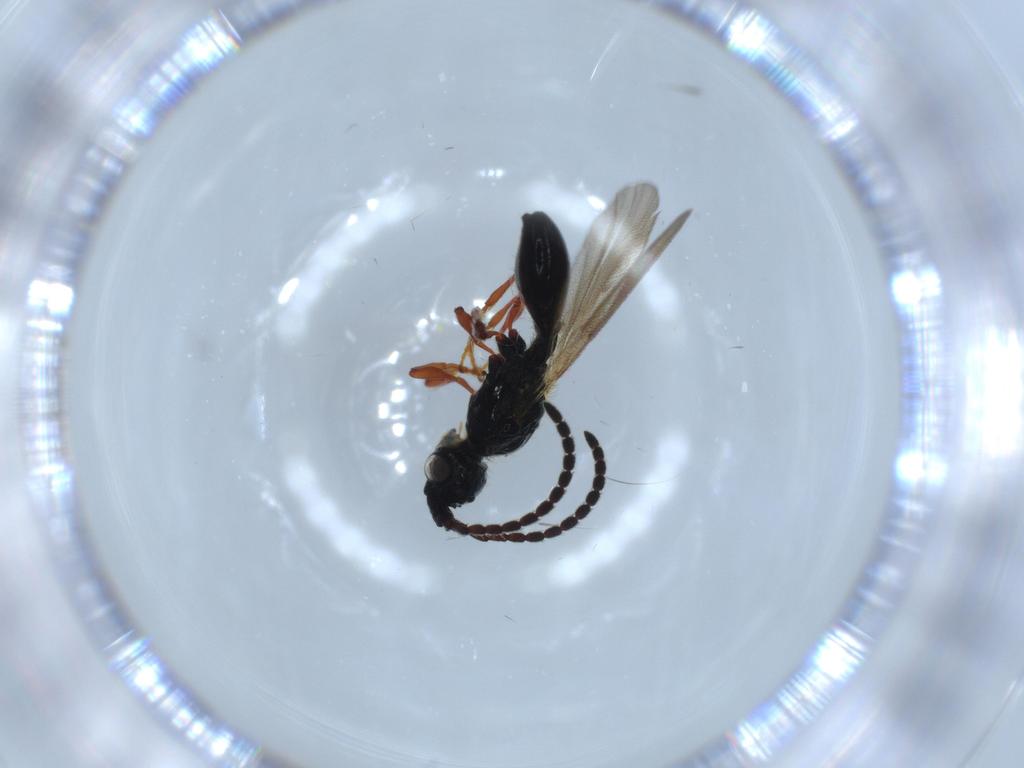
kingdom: Animalia
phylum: Arthropoda
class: Insecta
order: Hymenoptera
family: Diapriidae
